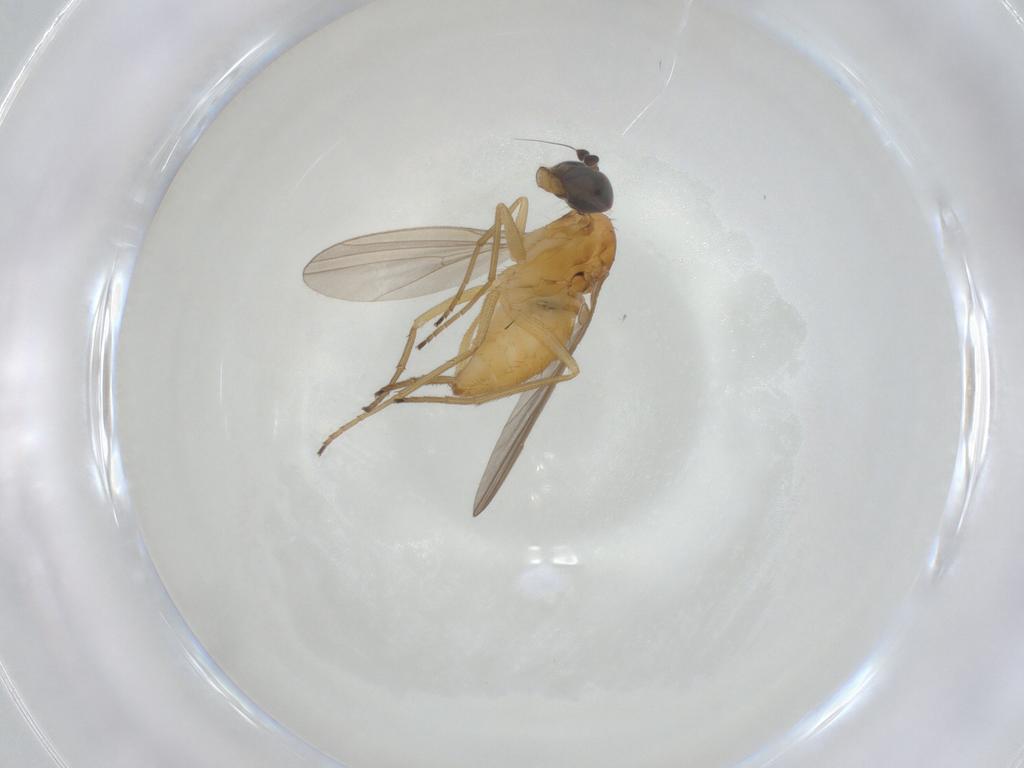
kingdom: Animalia
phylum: Arthropoda
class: Insecta
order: Diptera
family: Dolichopodidae
